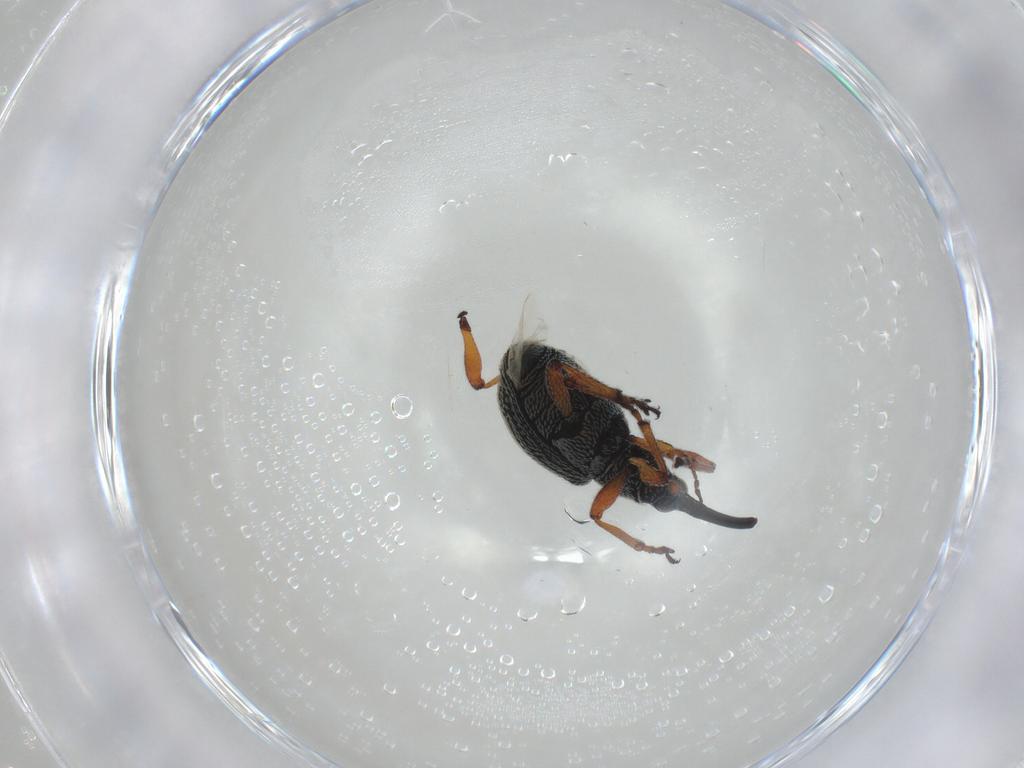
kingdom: Animalia
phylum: Arthropoda
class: Insecta
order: Coleoptera
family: Brentidae
